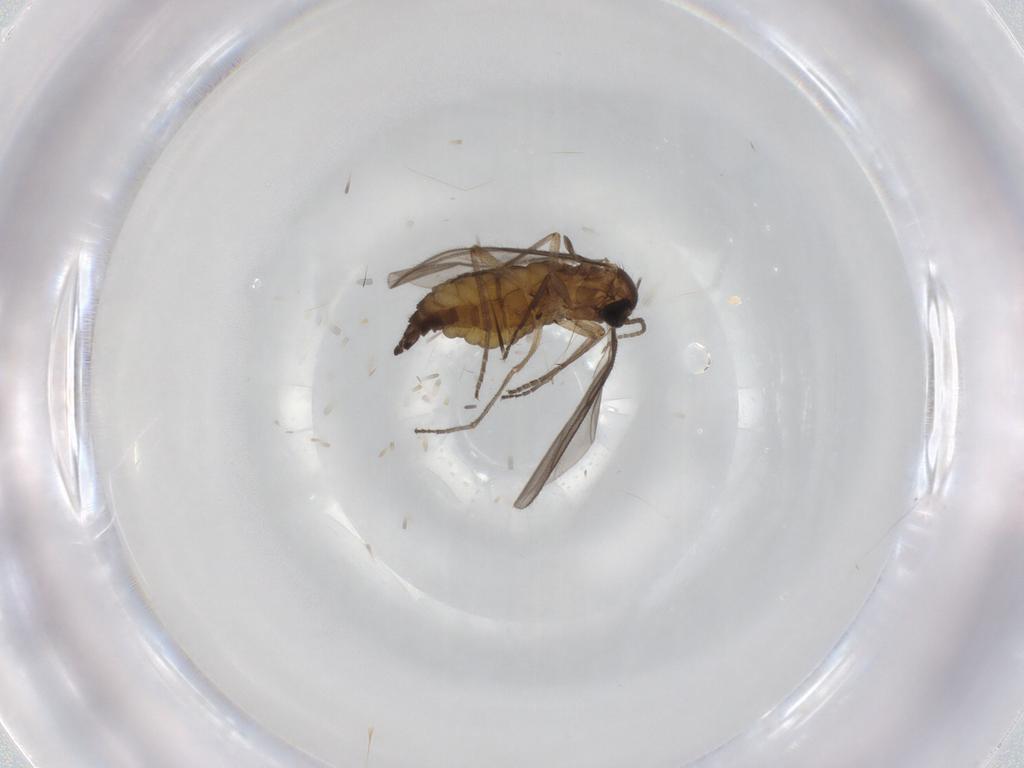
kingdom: Animalia
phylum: Arthropoda
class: Insecta
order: Diptera
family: Sciaridae
